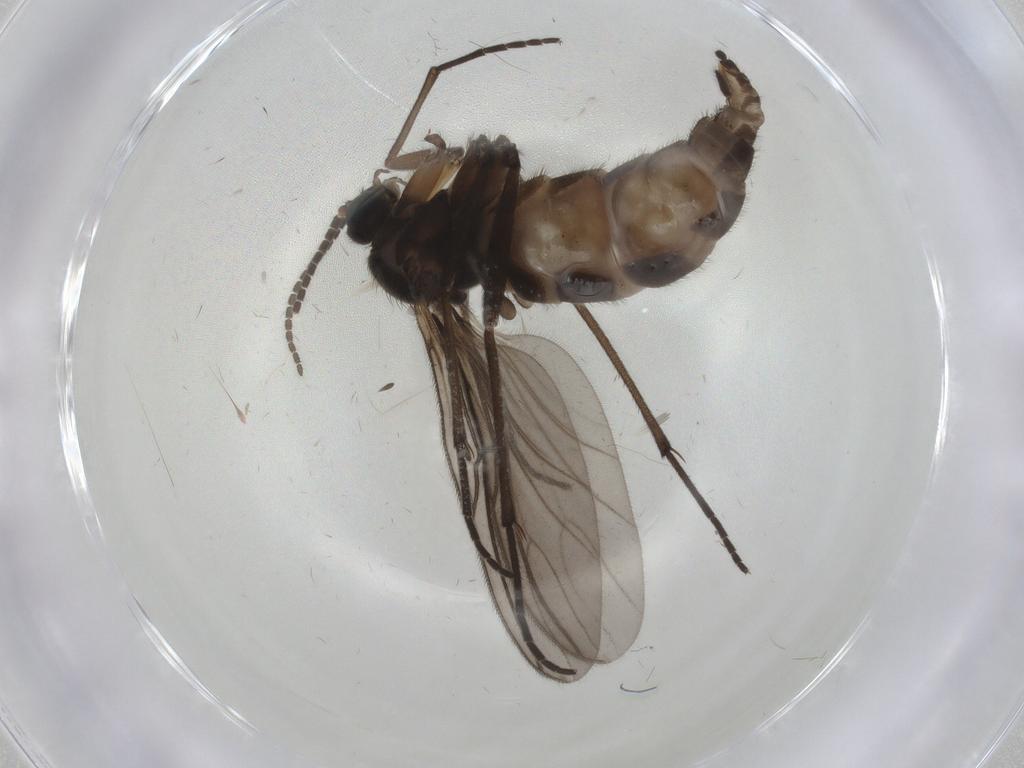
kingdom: Animalia
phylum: Arthropoda
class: Insecta
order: Diptera
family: Sciaridae
